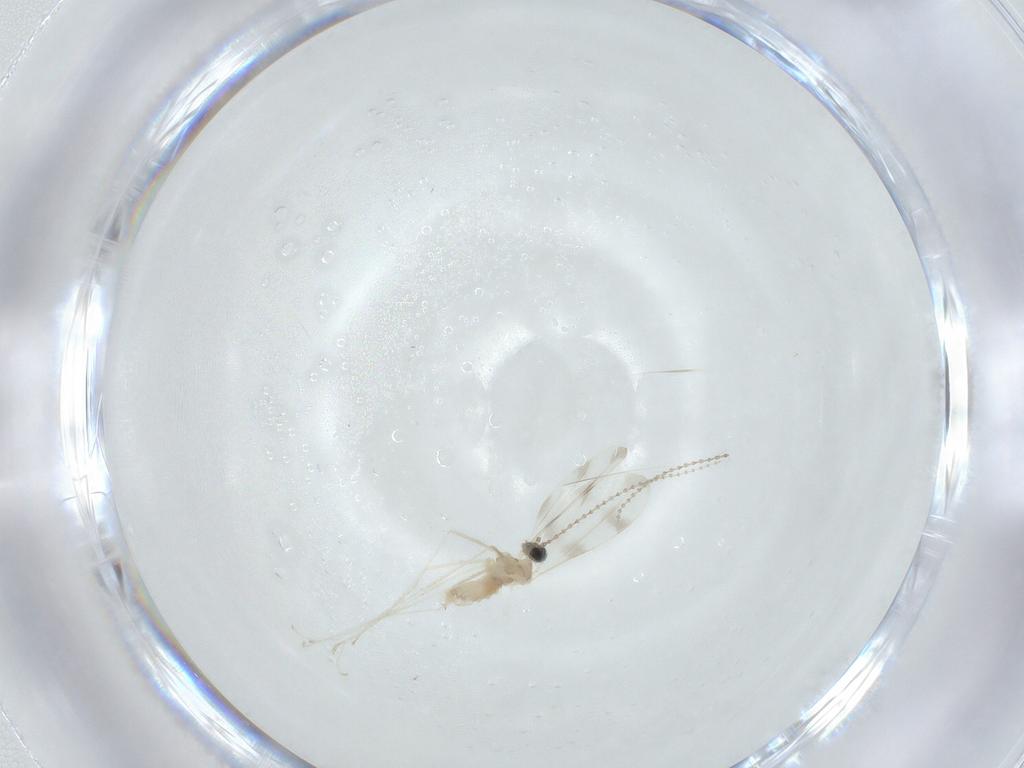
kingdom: Animalia
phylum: Arthropoda
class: Insecta
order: Diptera
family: Cecidomyiidae
